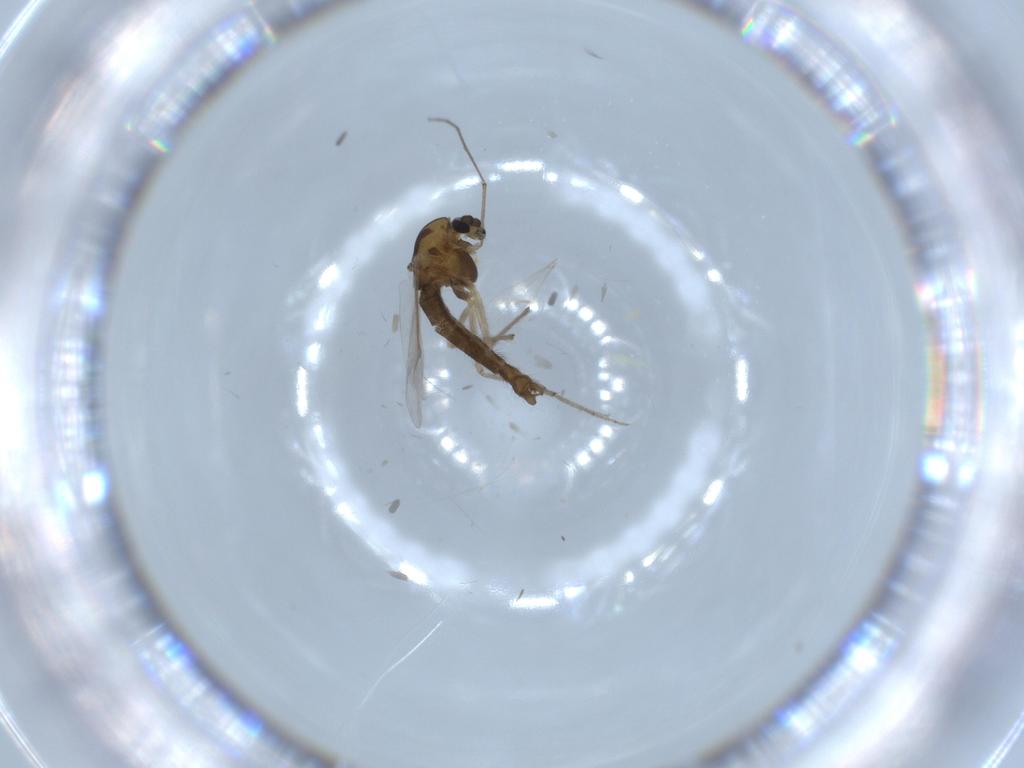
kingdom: Animalia
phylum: Arthropoda
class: Insecta
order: Diptera
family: Chironomidae
